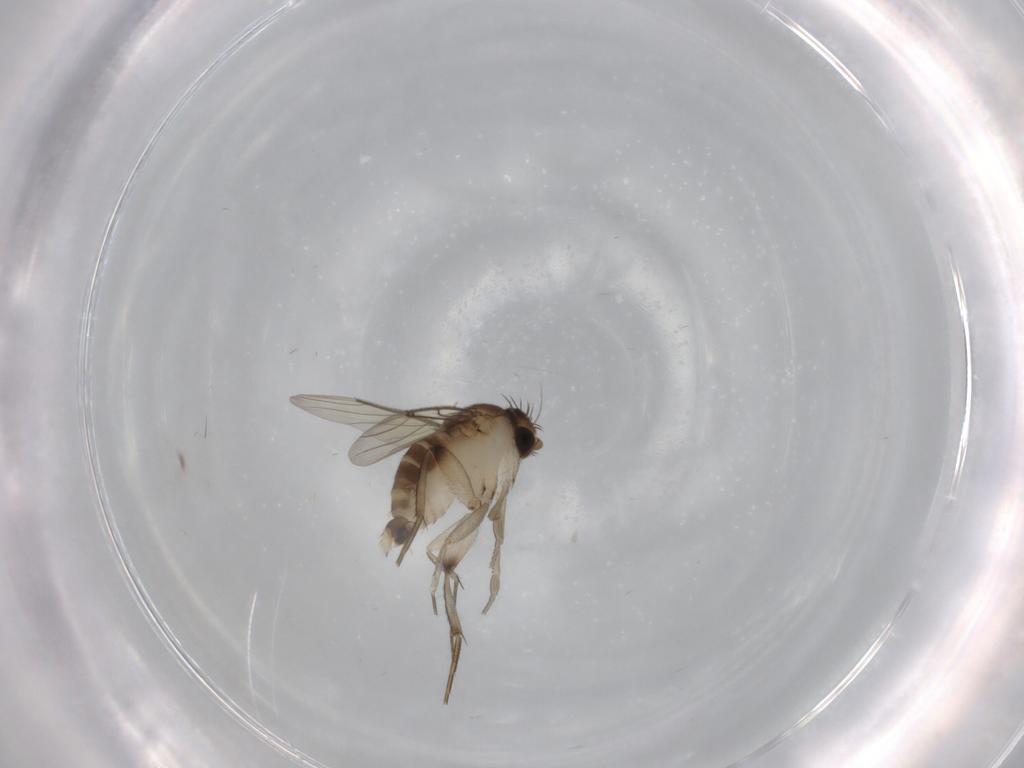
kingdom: Animalia
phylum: Arthropoda
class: Insecta
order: Diptera
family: Phoridae
